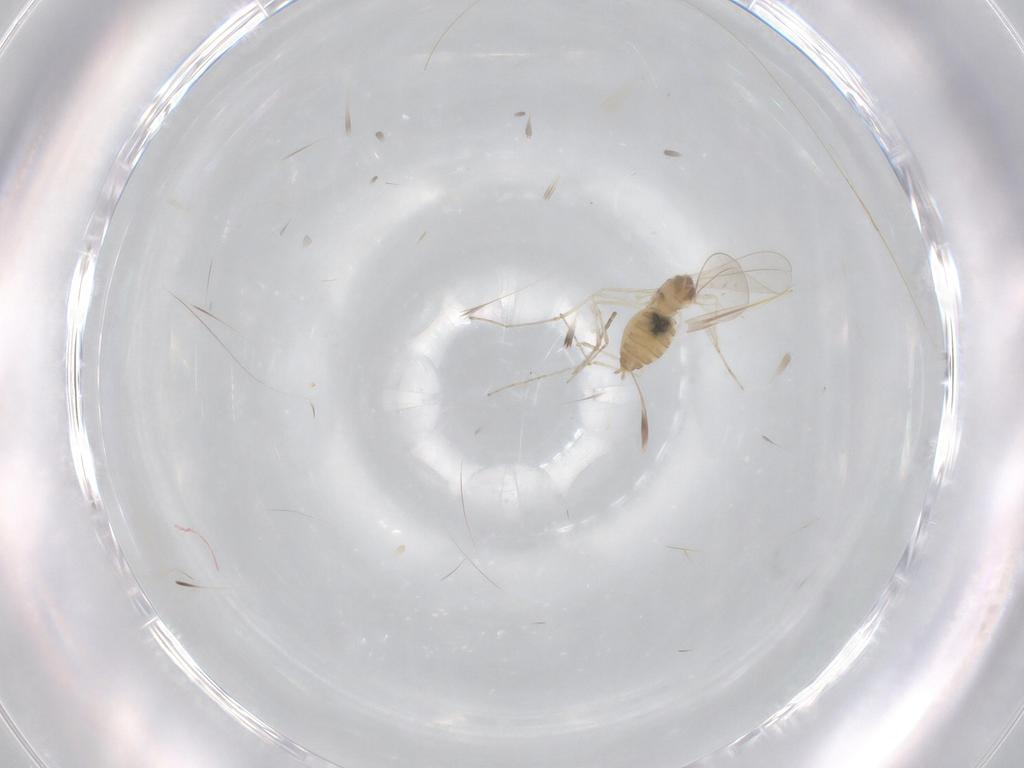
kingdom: Animalia
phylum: Arthropoda
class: Insecta
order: Diptera
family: Cecidomyiidae
